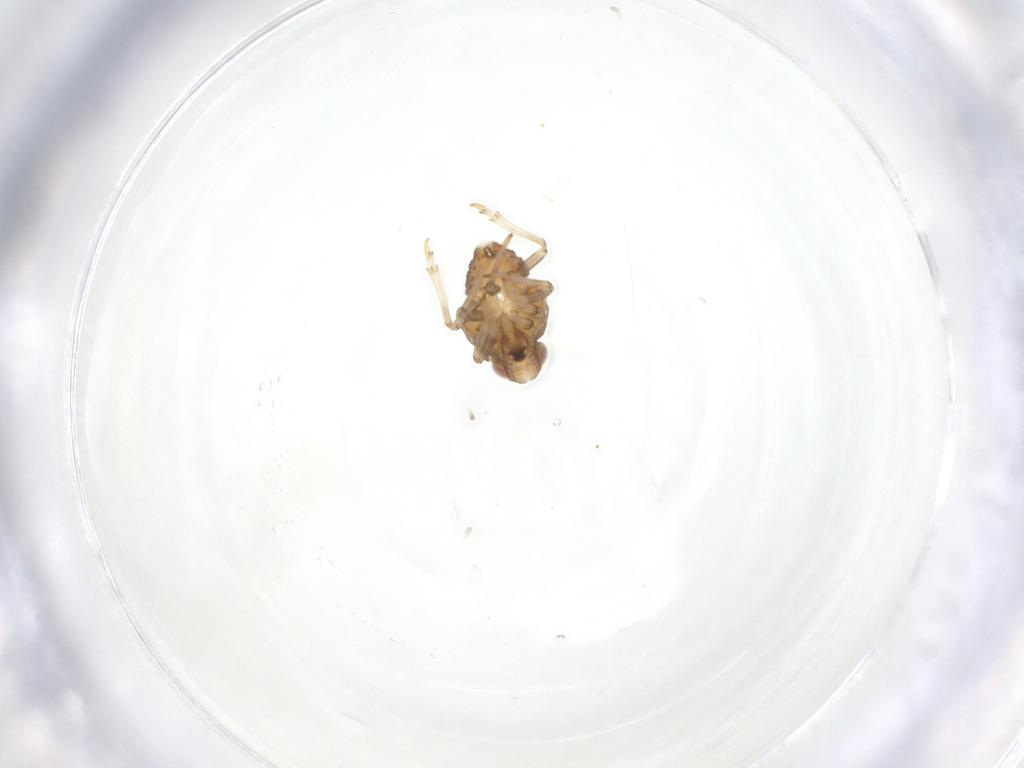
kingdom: Animalia
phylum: Arthropoda
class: Insecta
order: Hemiptera
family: Issidae
